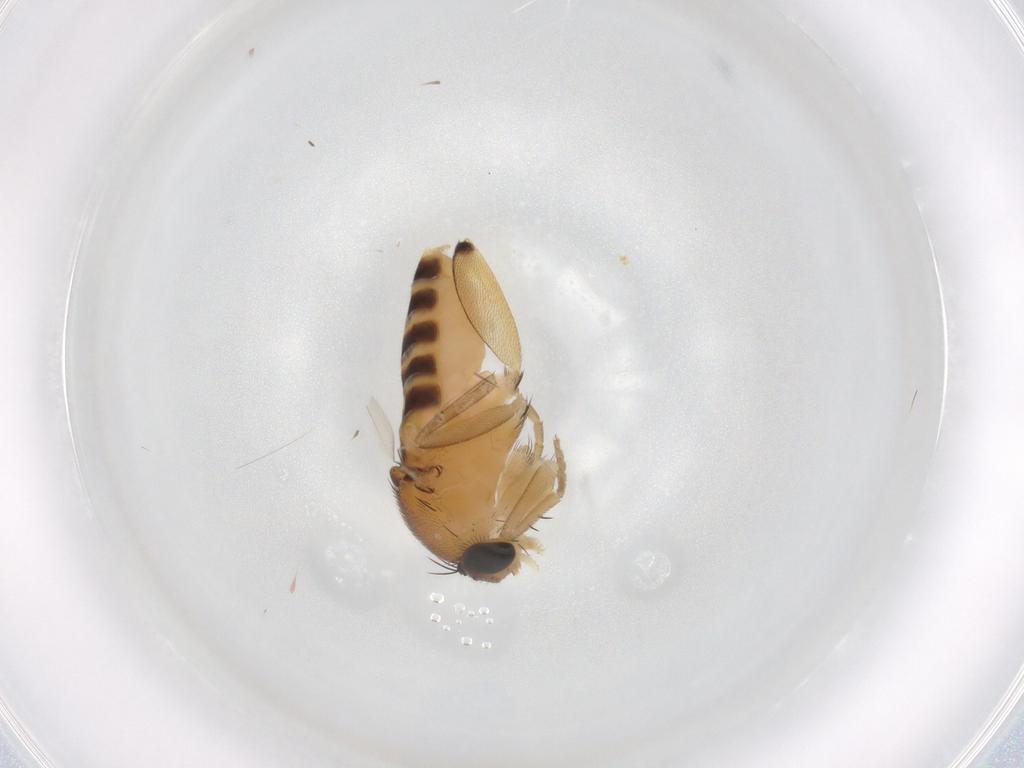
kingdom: Animalia
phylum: Arthropoda
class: Insecta
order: Diptera
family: Phoridae
